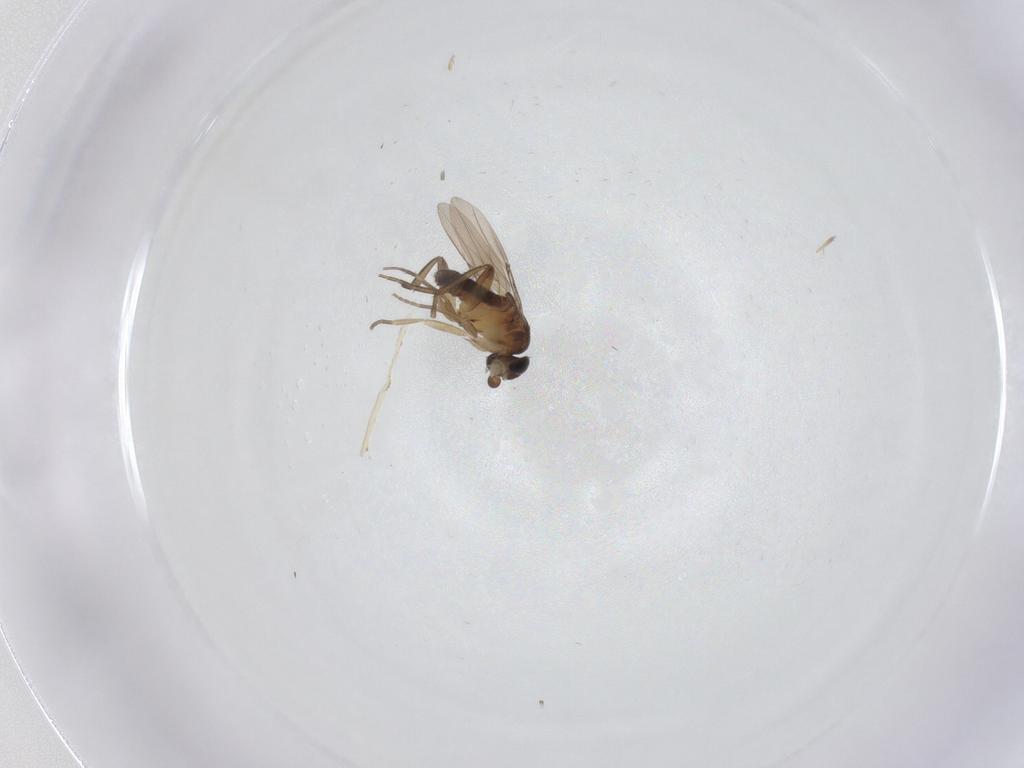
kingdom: Animalia
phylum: Arthropoda
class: Insecta
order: Diptera
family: Phoridae
